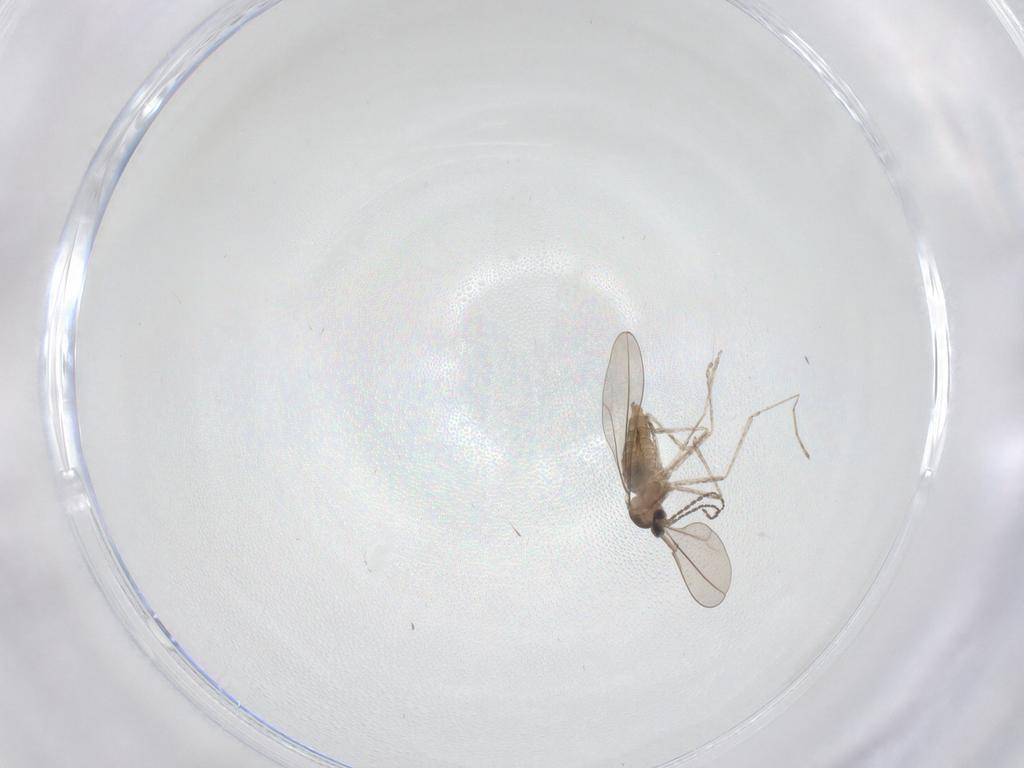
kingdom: Animalia
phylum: Arthropoda
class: Insecta
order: Diptera
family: Cecidomyiidae
